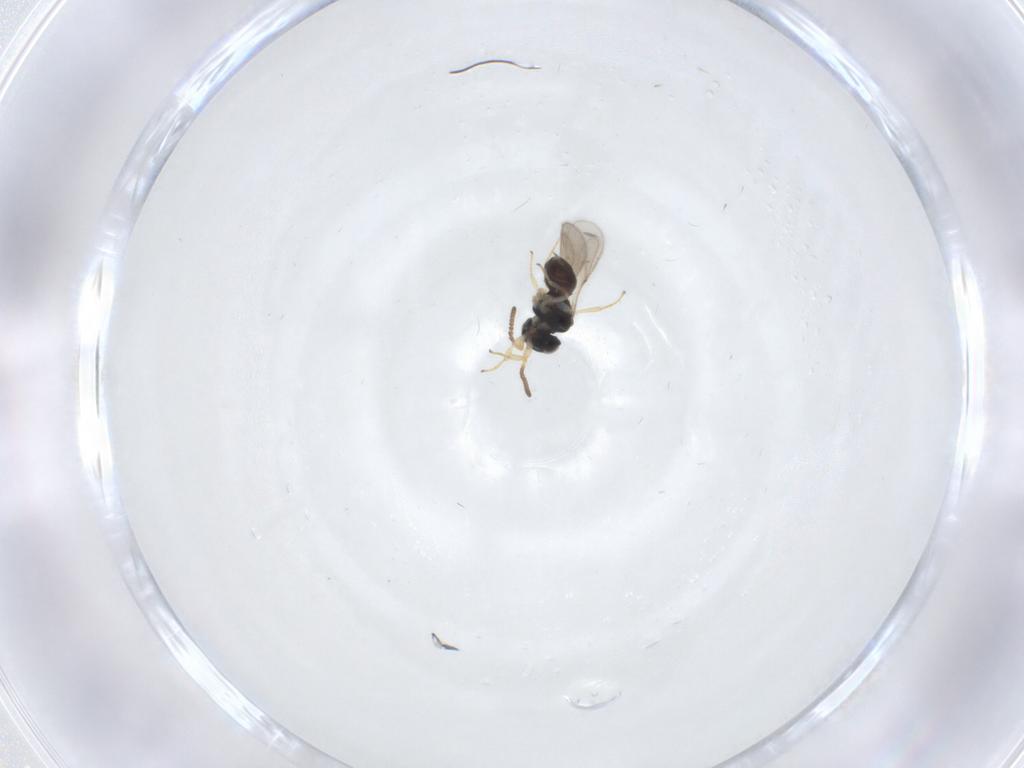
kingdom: Animalia
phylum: Arthropoda
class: Insecta
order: Hymenoptera
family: Scelionidae
